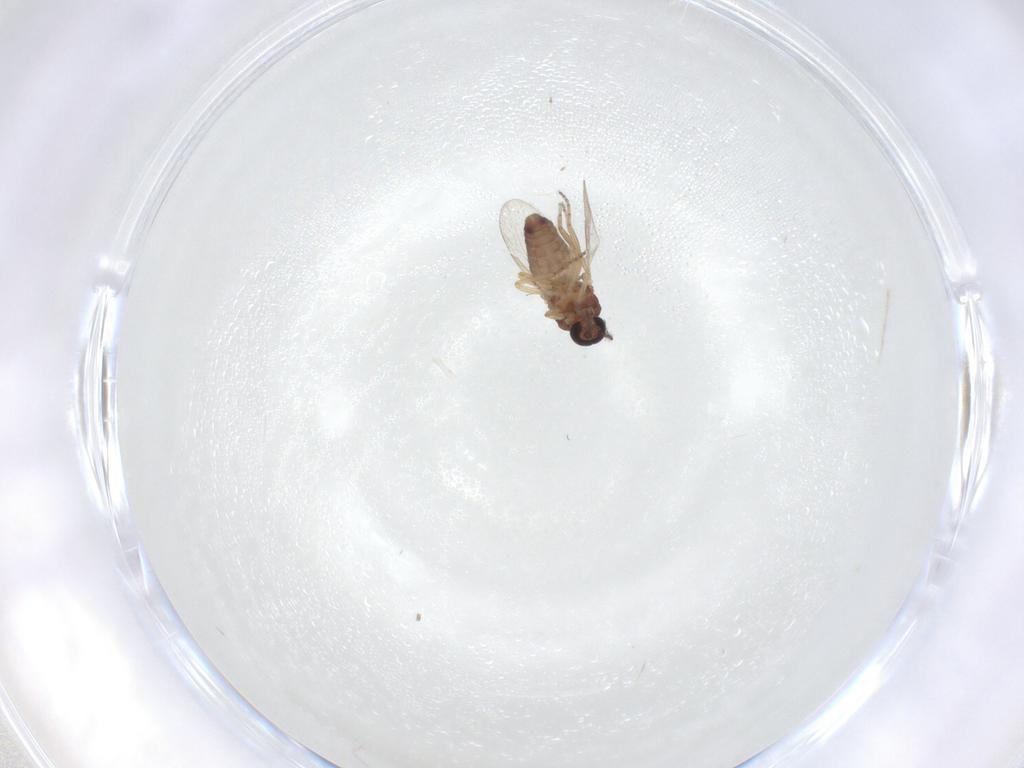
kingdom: Animalia
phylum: Arthropoda
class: Insecta
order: Diptera
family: Ceratopogonidae
